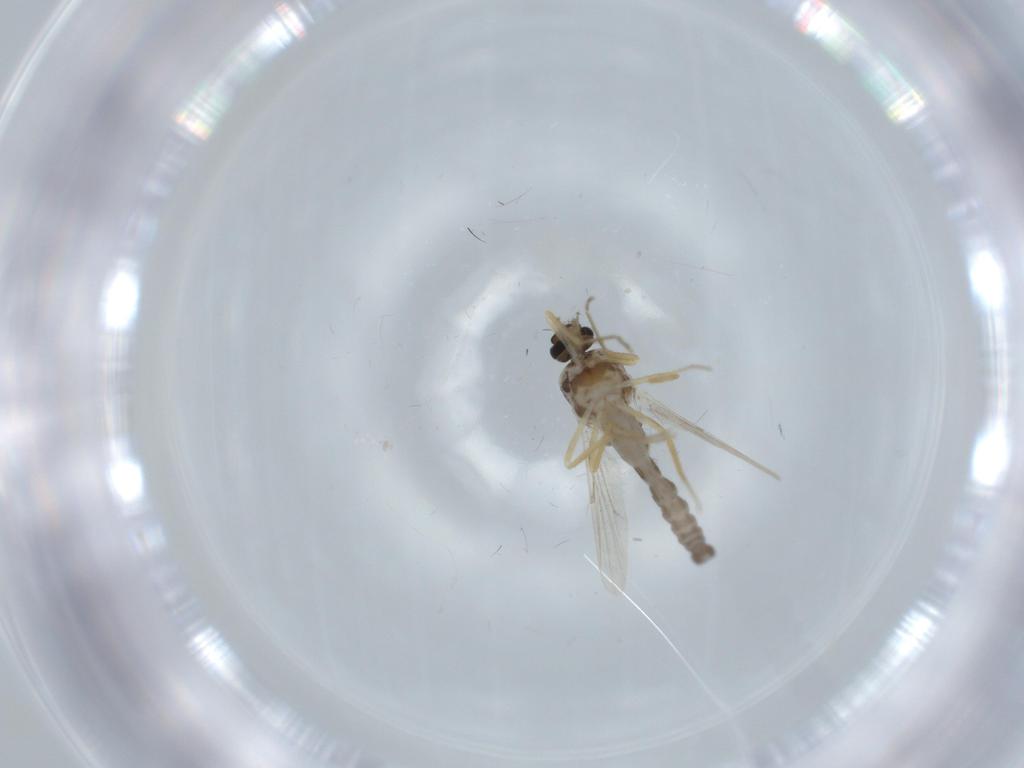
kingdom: Animalia
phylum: Arthropoda
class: Insecta
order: Diptera
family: Ceratopogonidae
